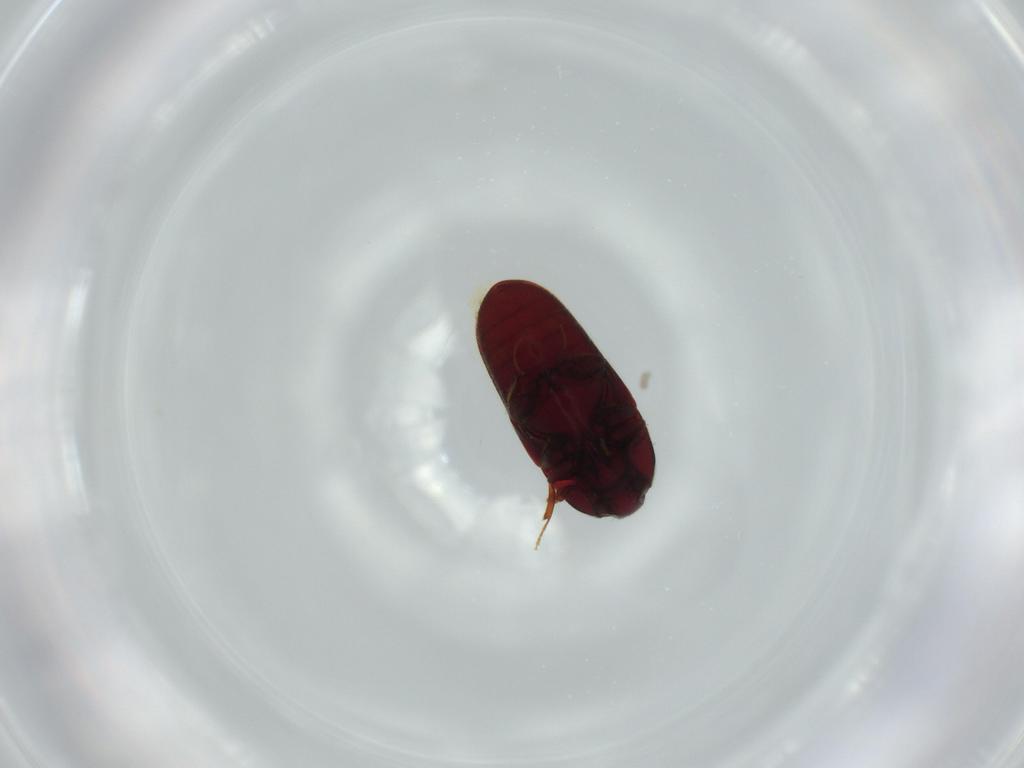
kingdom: Animalia
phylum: Arthropoda
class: Insecta
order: Coleoptera
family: Throscidae
